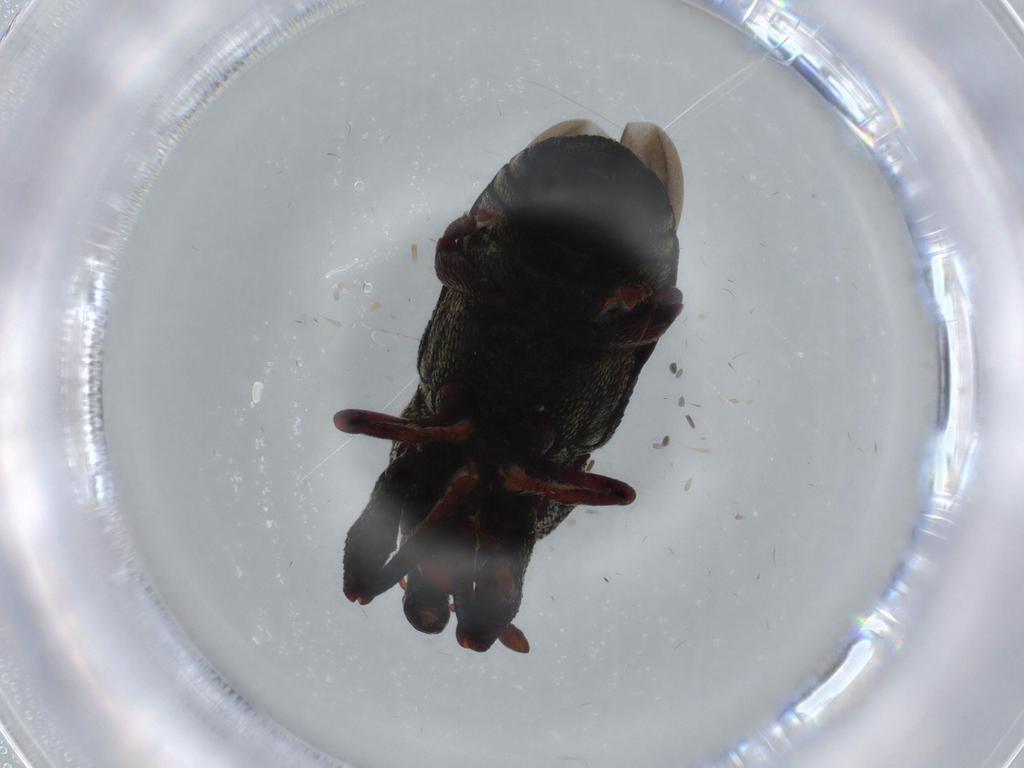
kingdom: Animalia
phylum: Arthropoda
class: Insecta
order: Coleoptera
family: Curculionidae
